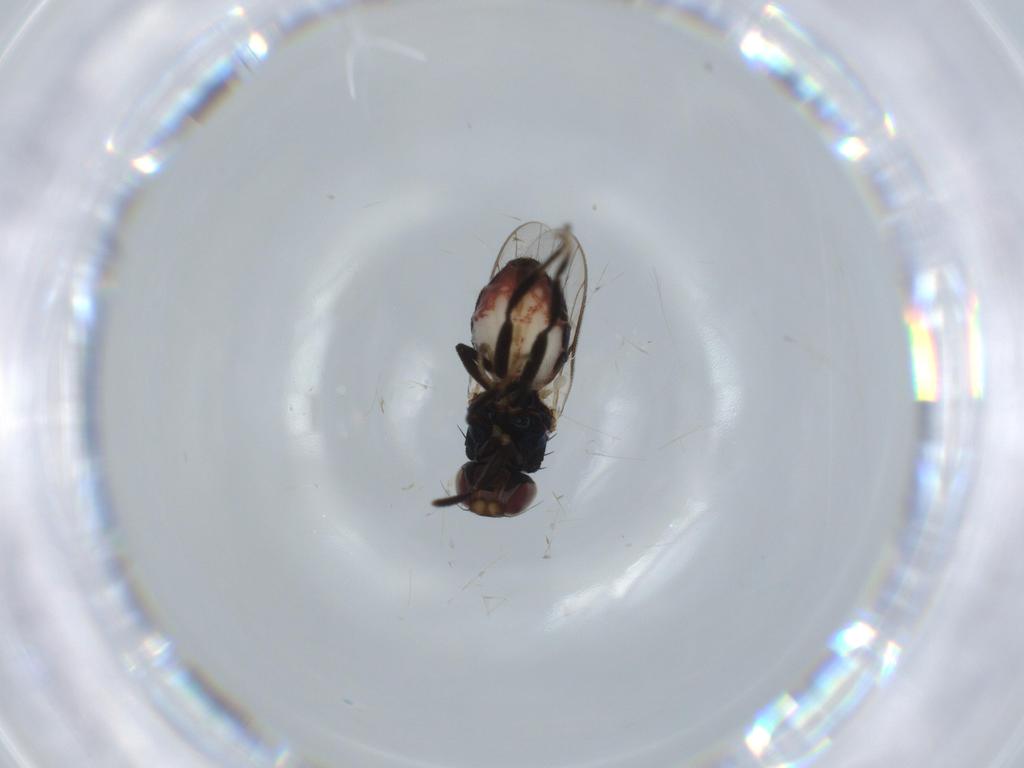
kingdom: Animalia
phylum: Arthropoda
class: Insecta
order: Diptera
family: Chloropidae
